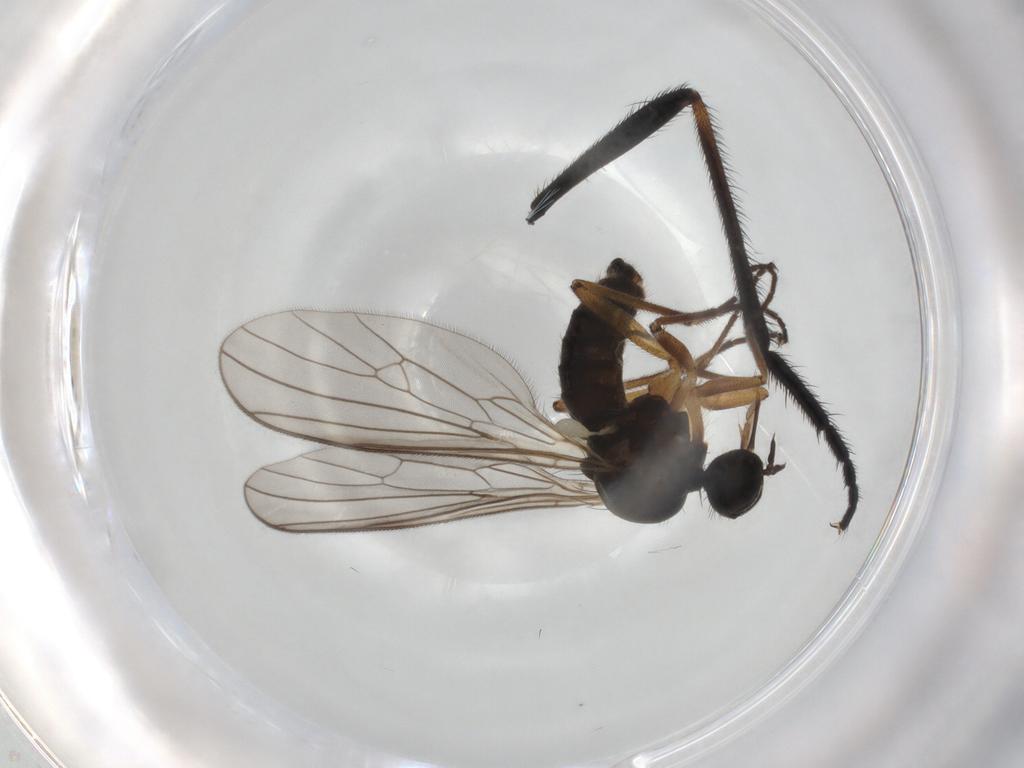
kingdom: Animalia
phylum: Arthropoda
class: Insecta
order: Diptera
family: Empididae
